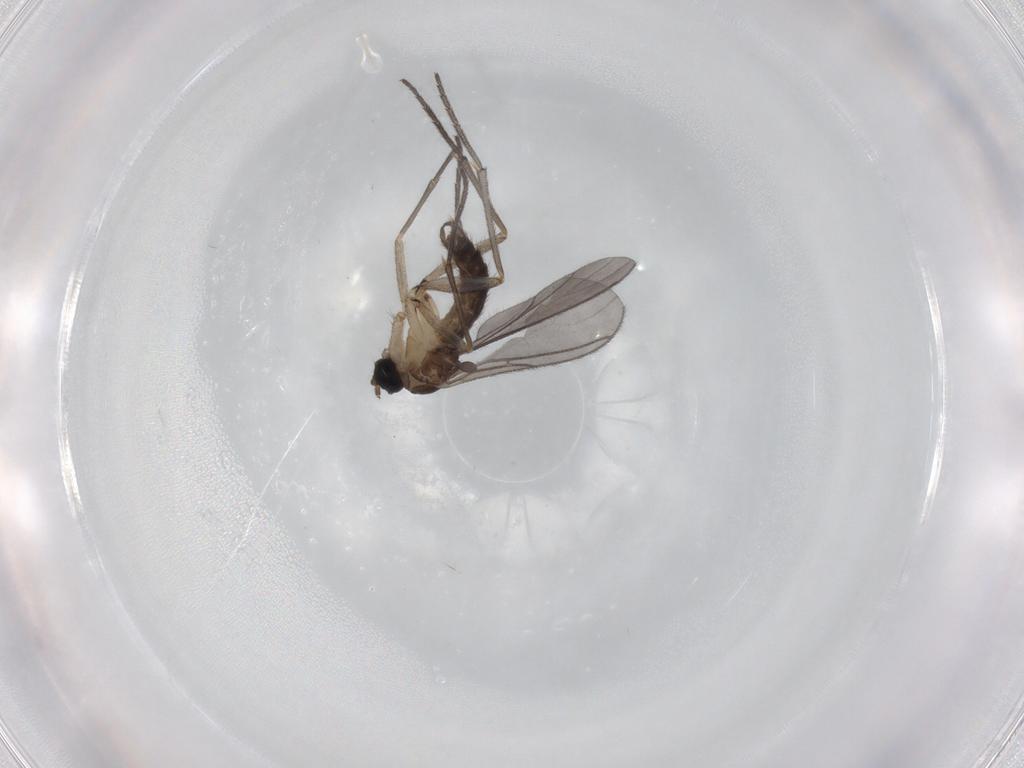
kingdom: Animalia
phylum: Arthropoda
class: Insecta
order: Diptera
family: Sciaridae
